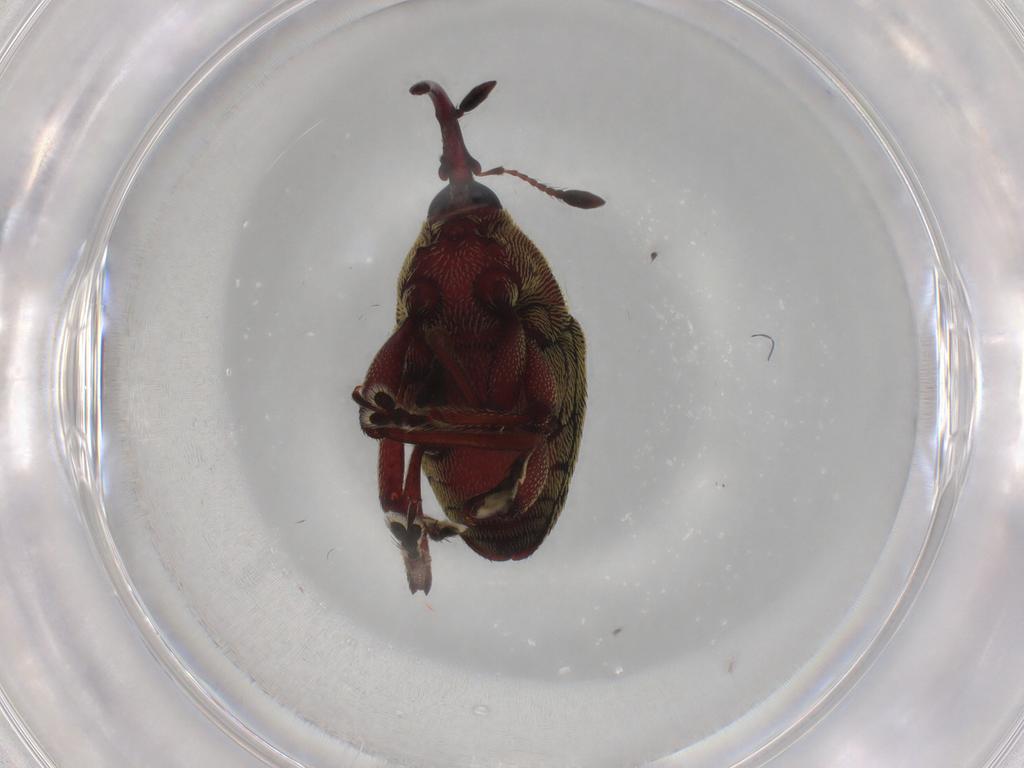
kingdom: Animalia
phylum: Arthropoda
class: Insecta
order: Coleoptera
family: Curculionidae
